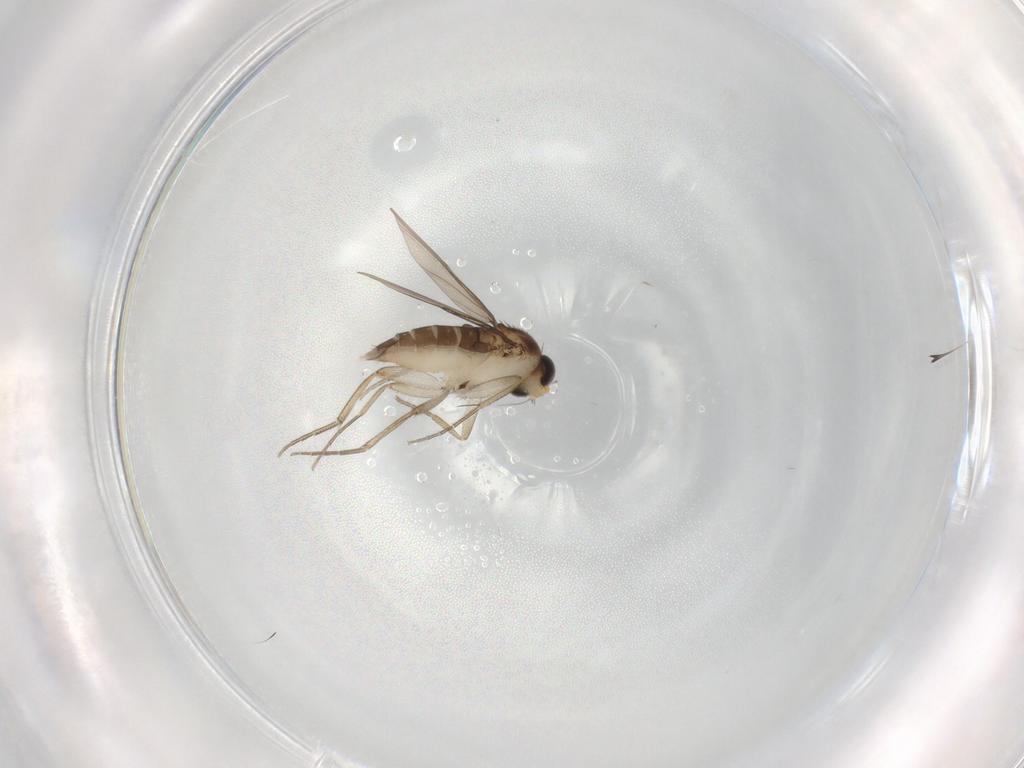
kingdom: Animalia
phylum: Arthropoda
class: Insecta
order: Diptera
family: Phoridae
